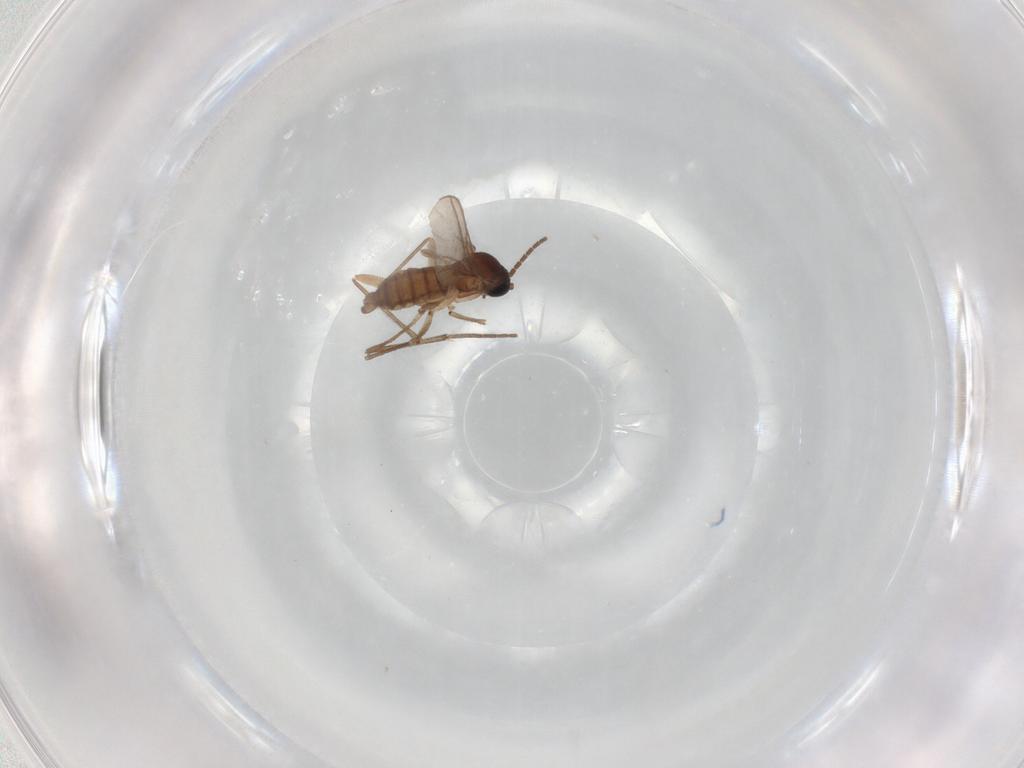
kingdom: Animalia
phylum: Arthropoda
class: Insecta
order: Diptera
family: Sciaridae
